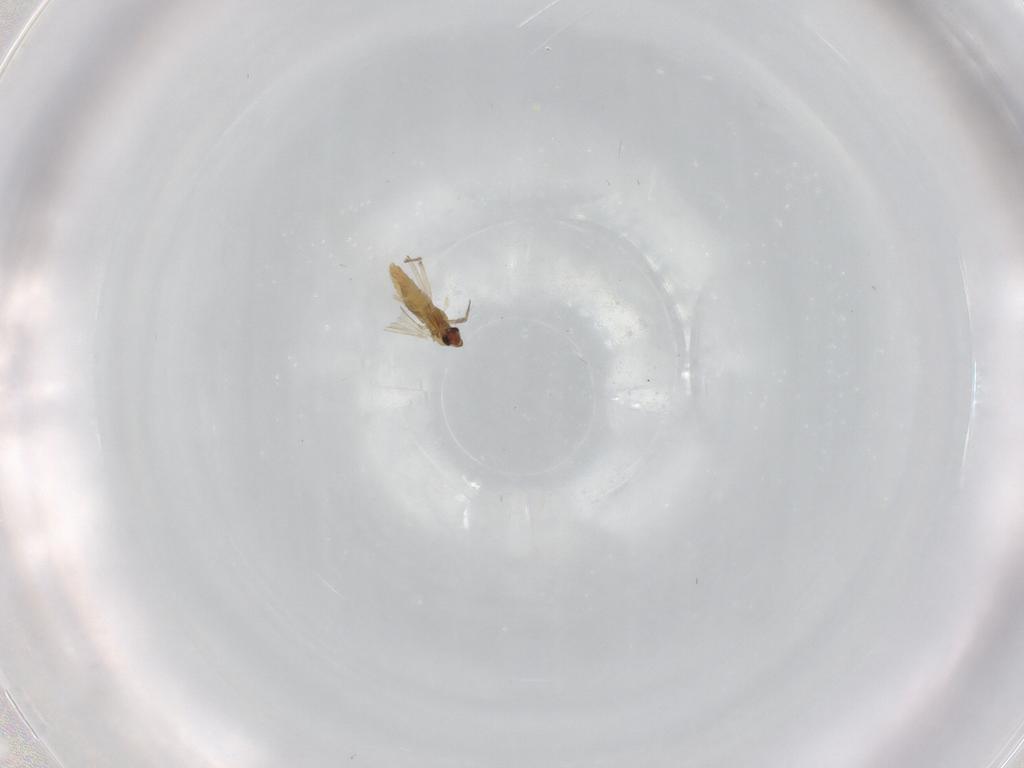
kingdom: Animalia
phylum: Arthropoda
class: Insecta
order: Diptera
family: Chironomidae
